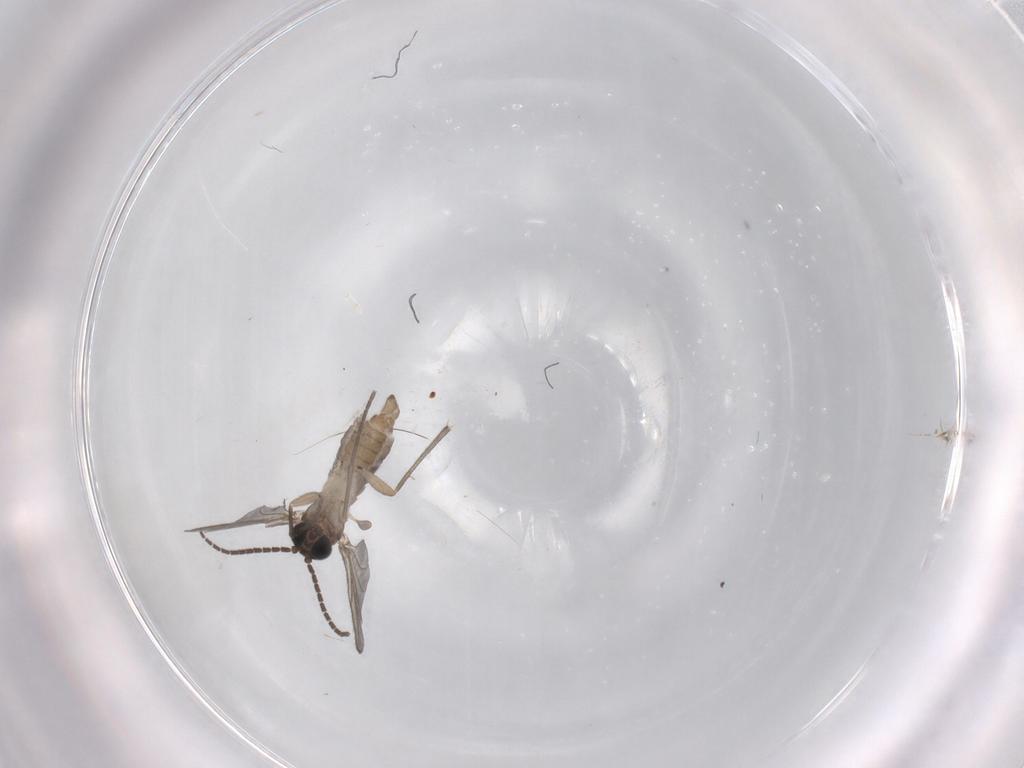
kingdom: Animalia
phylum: Arthropoda
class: Insecta
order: Diptera
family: Sciaridae
